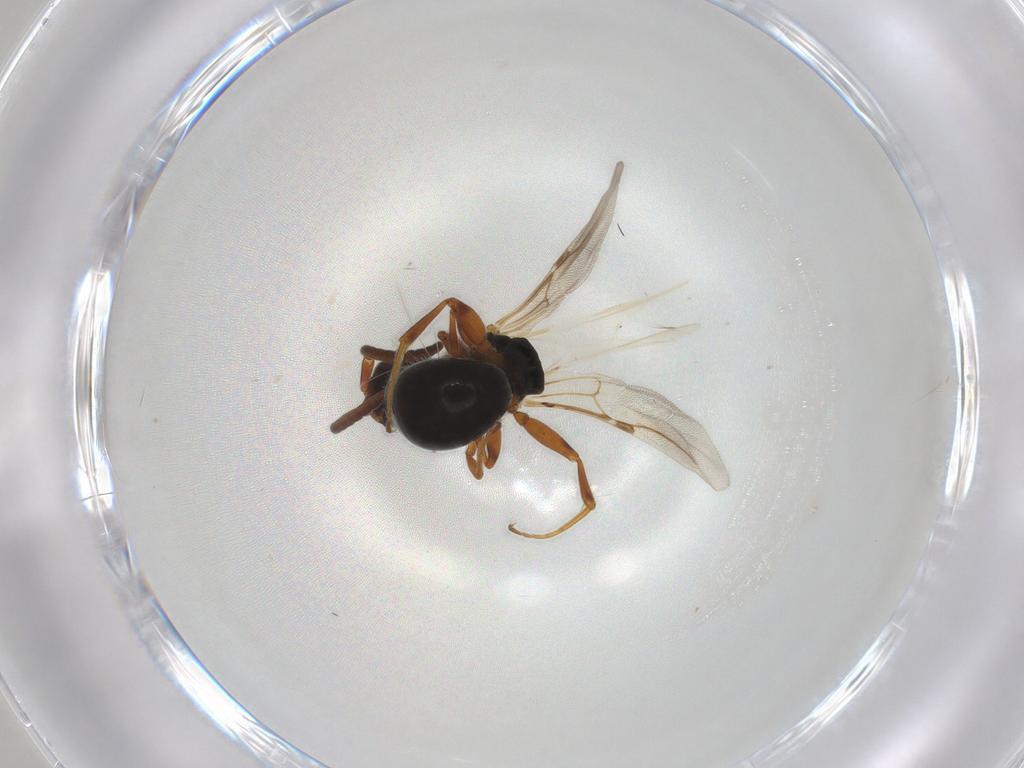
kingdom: Animalia
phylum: Arthropoda
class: Insecta
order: Hymenoptera
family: Bethylidae
